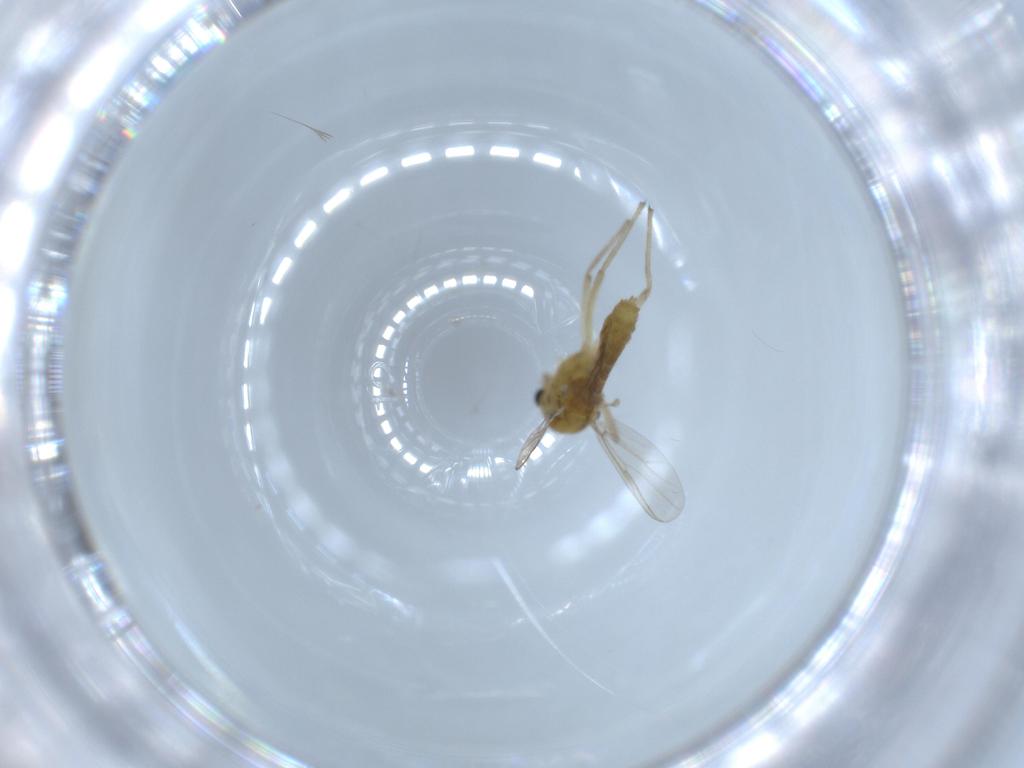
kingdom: Animalia
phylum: Arthropoda
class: Insecta
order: Diptera
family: Chironomidae
